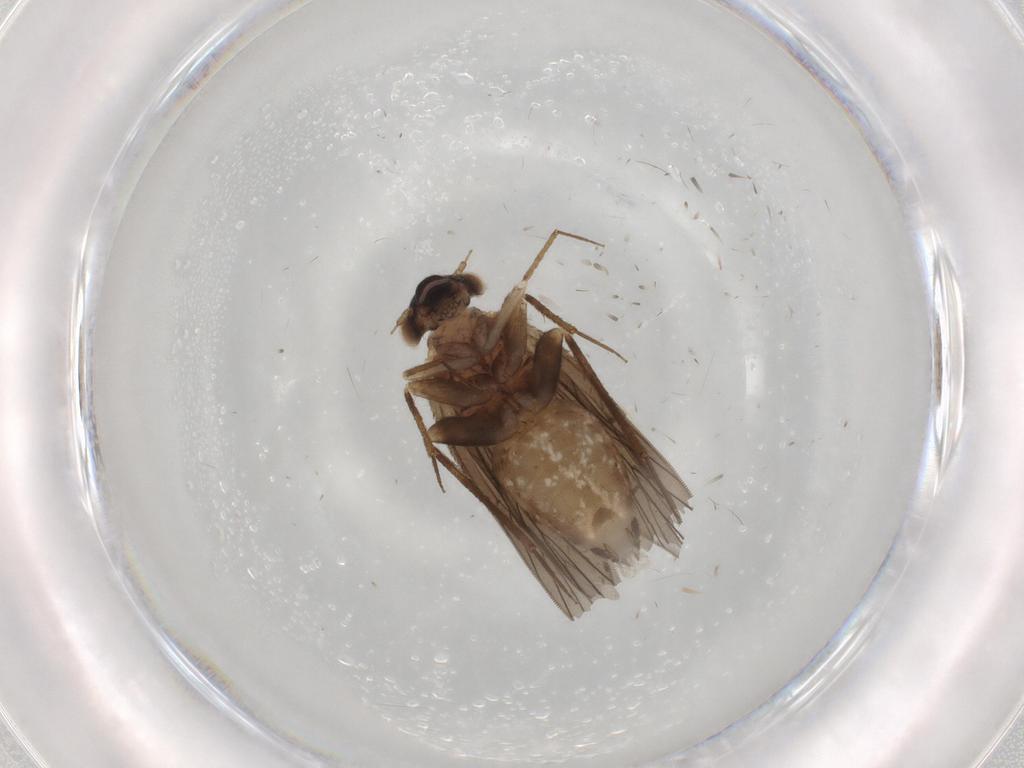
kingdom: Animalia
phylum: Arthropoda
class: Insecta
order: Psocodea
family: Lepidopsocidae
